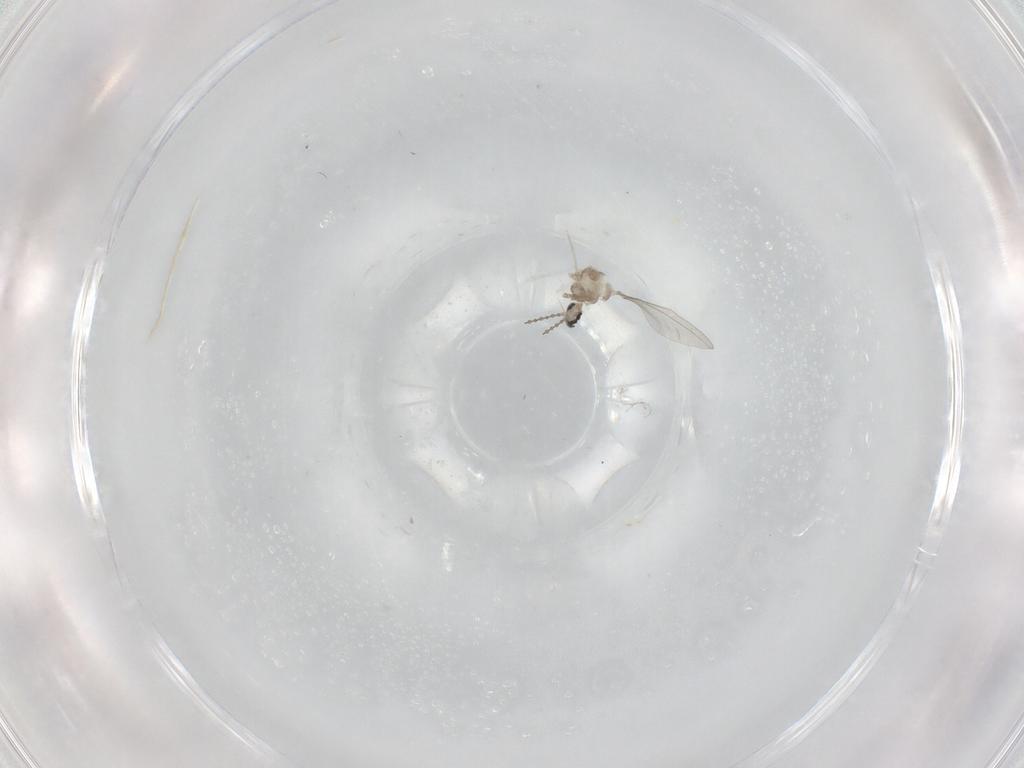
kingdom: Animalia
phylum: Arthropoda
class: Insecta
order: Diptera
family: Cecidomyiidae
